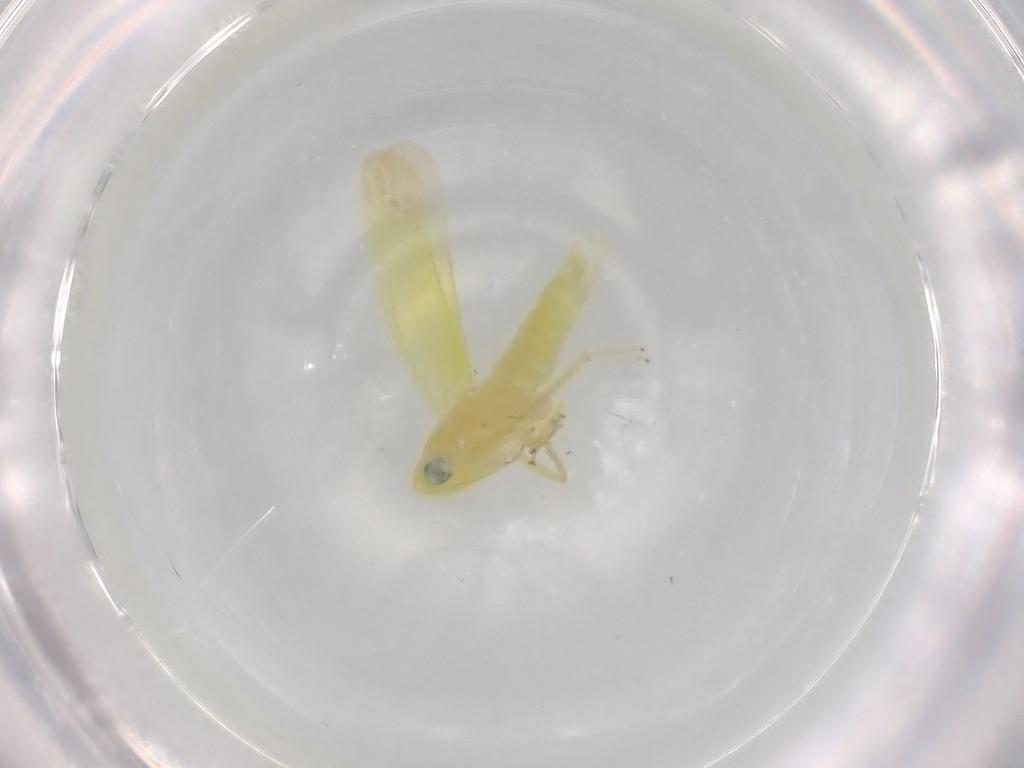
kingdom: Animalia
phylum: Arthropoda
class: Insecta
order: Hemiptera
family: Cicadellidae
